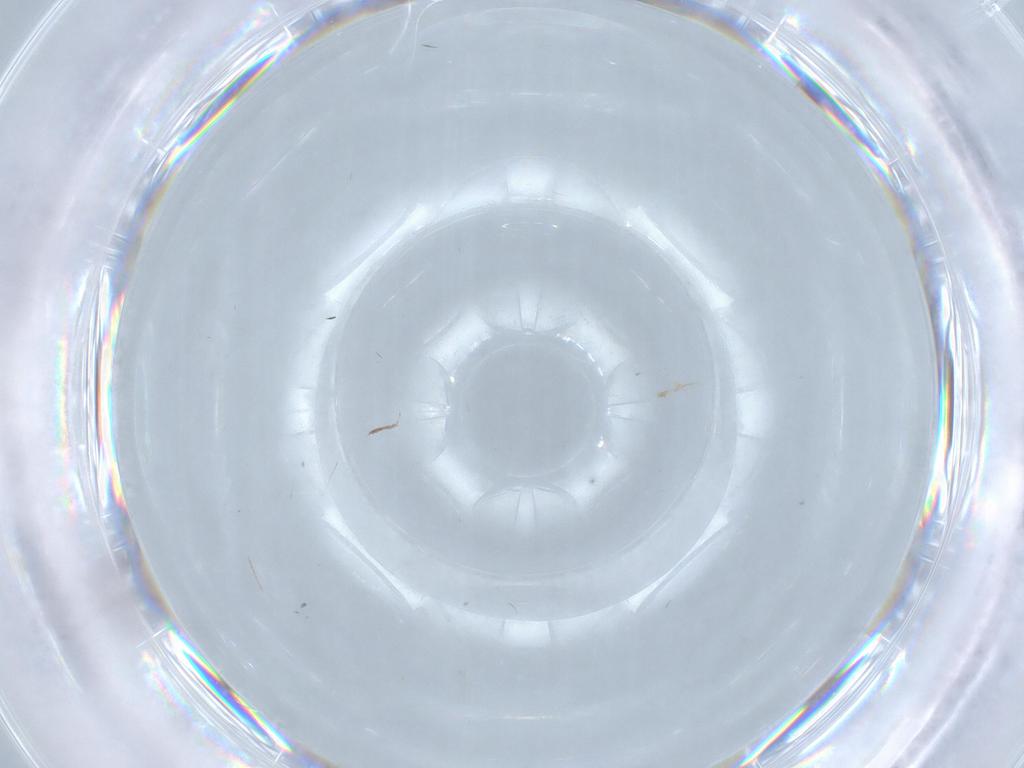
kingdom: Animalia
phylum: Arthropoda
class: Insecta
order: Diptera
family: Cecidomyiidae
